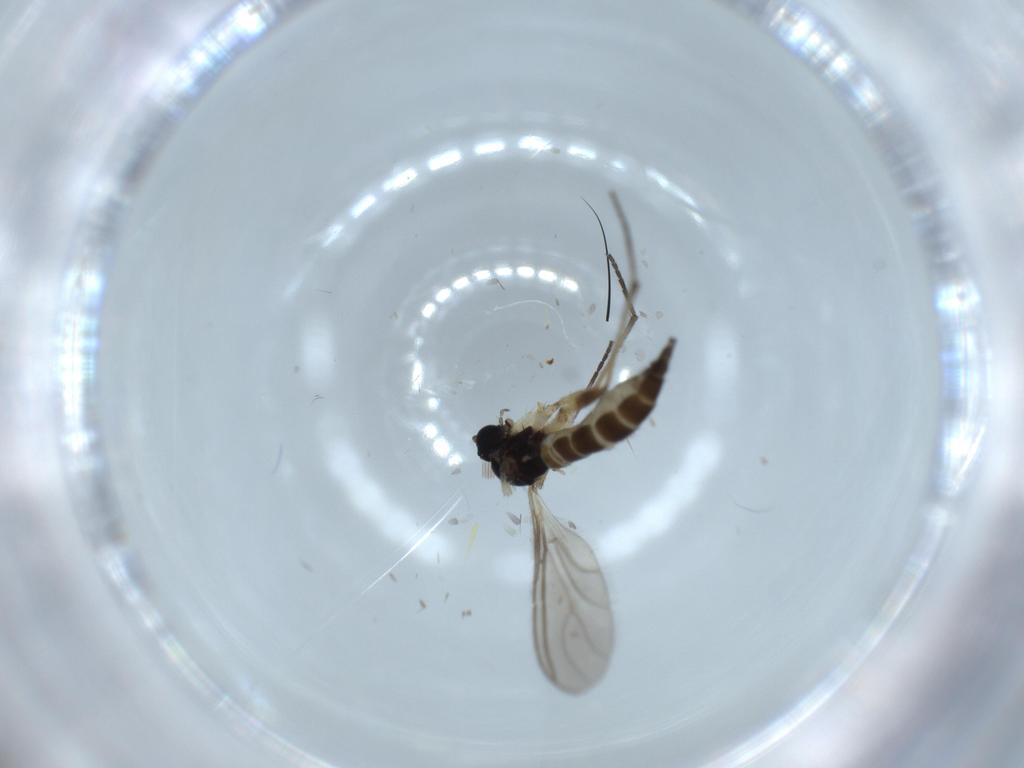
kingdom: Animalia
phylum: Arthropoda
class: Insecta
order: Diptera
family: Sciaridae
